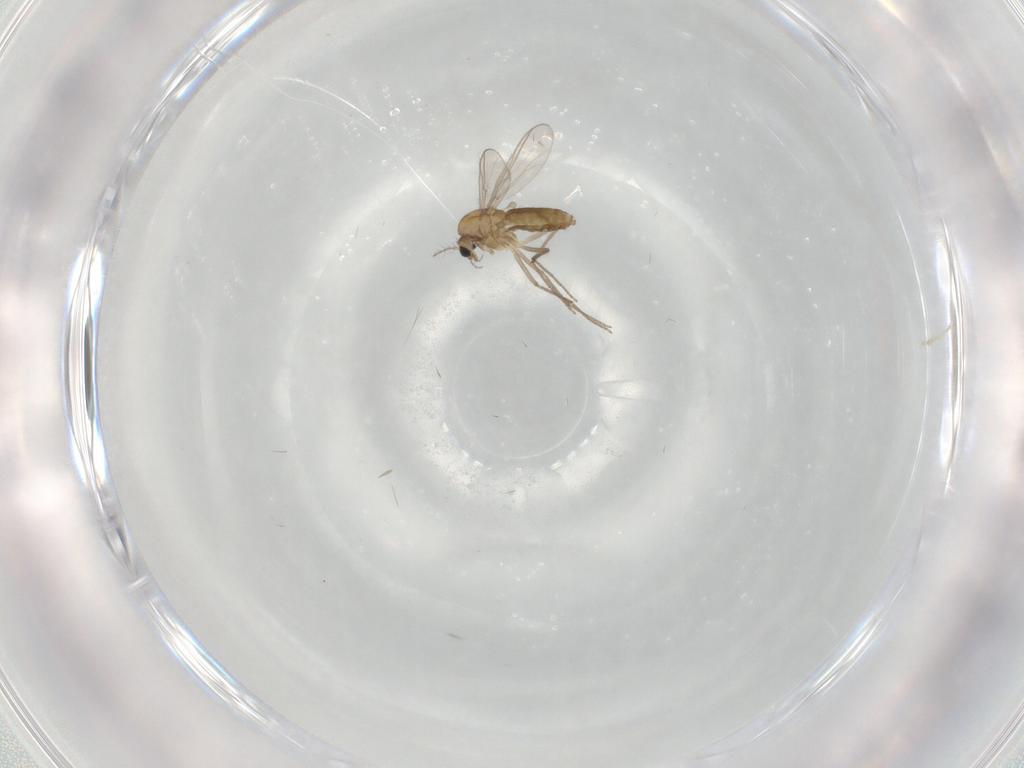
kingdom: Animalia
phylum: Arthropoda
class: Insecta
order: Diptera
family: Chironomidae
